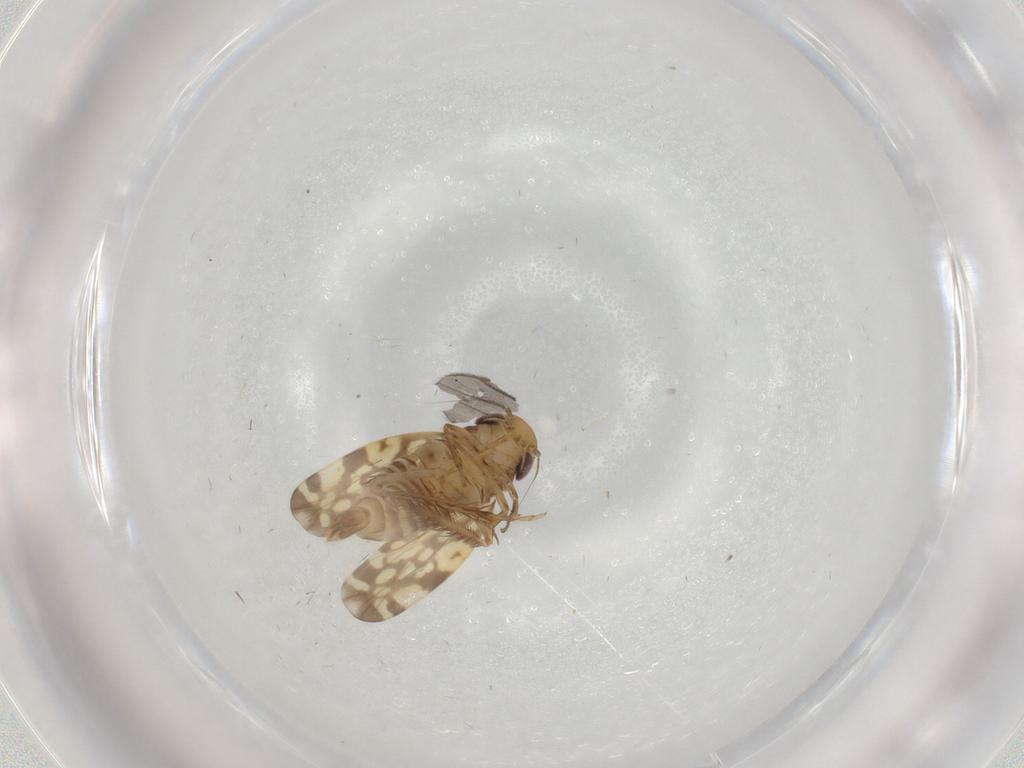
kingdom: Animalia
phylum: Arthropoda
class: Insecta
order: Hemiptera
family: Cicadellidae
